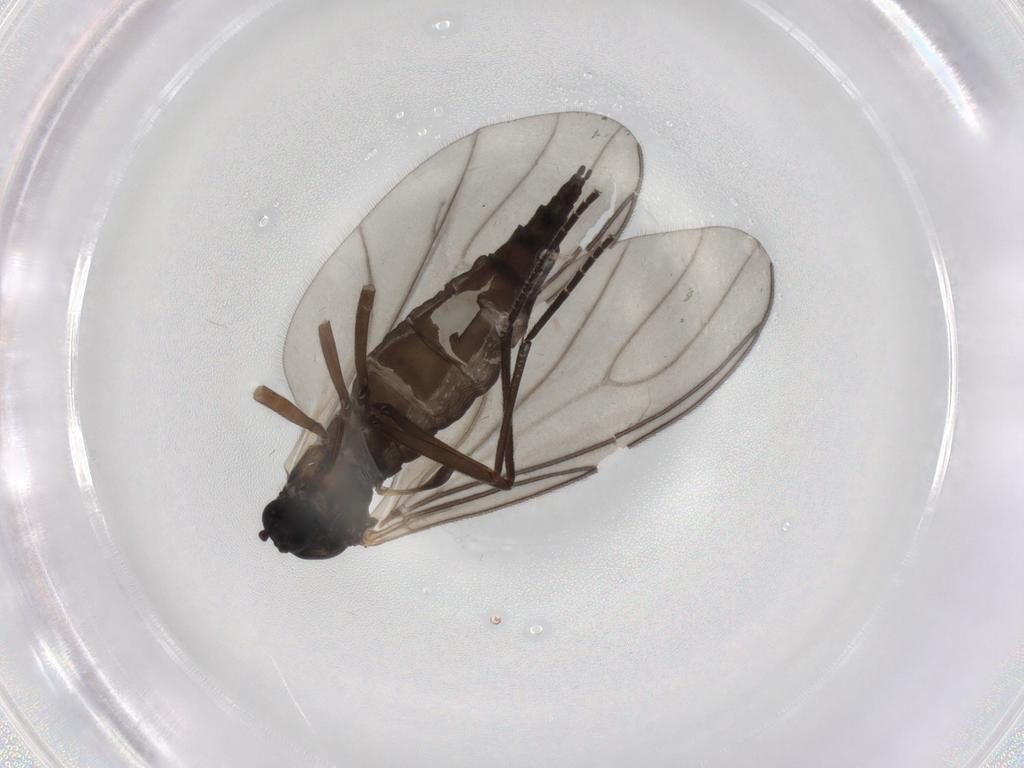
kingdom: Animalia
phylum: Arthropoda
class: Insecta
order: Diptera
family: Sciaridae
